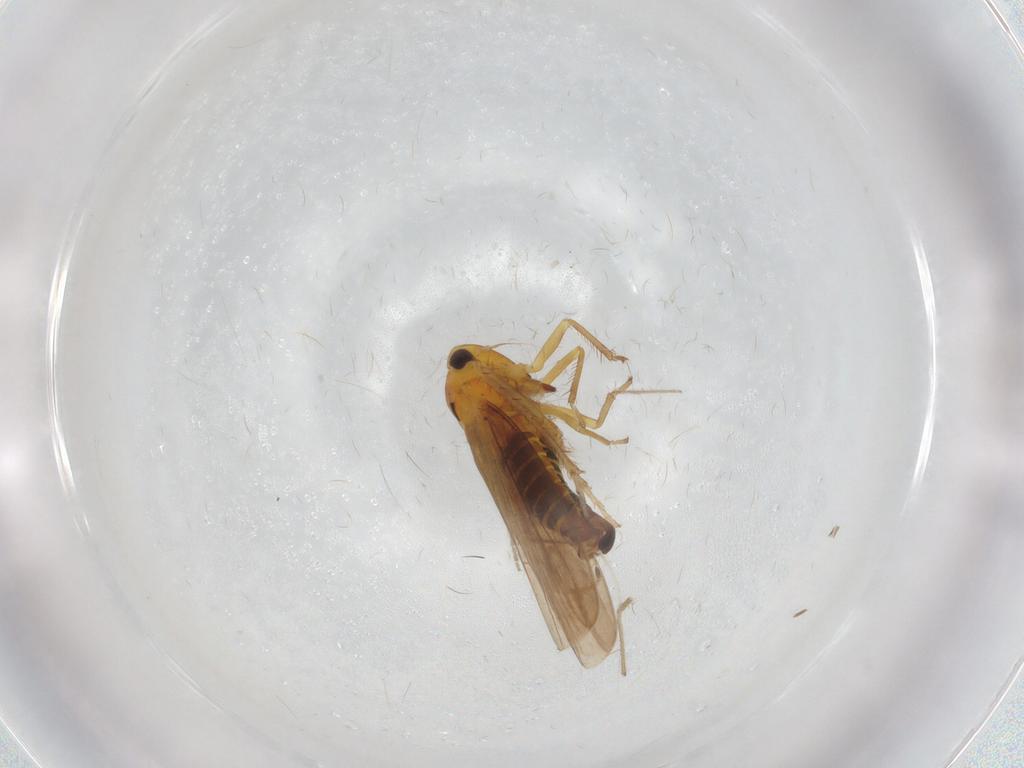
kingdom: Animalia
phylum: Arthropoda
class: Insecta
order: Hemiptera
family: Cicadellidae
